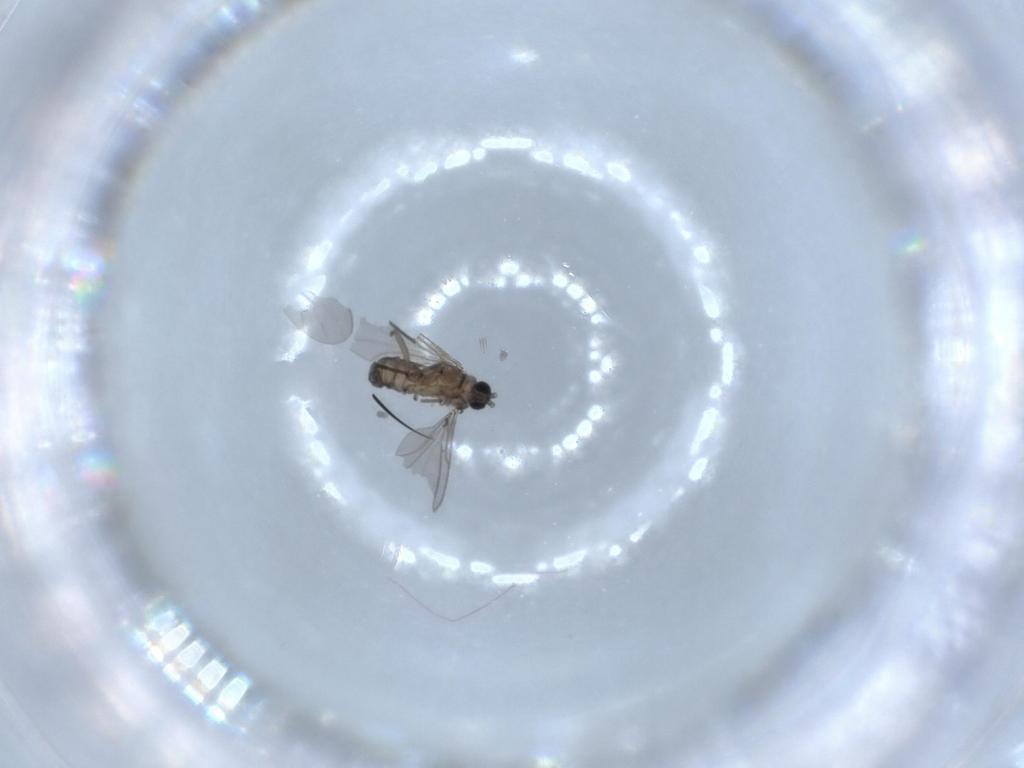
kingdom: Animalia
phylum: Arthropoda
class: Insecta
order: Diptera
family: Sciaridae
